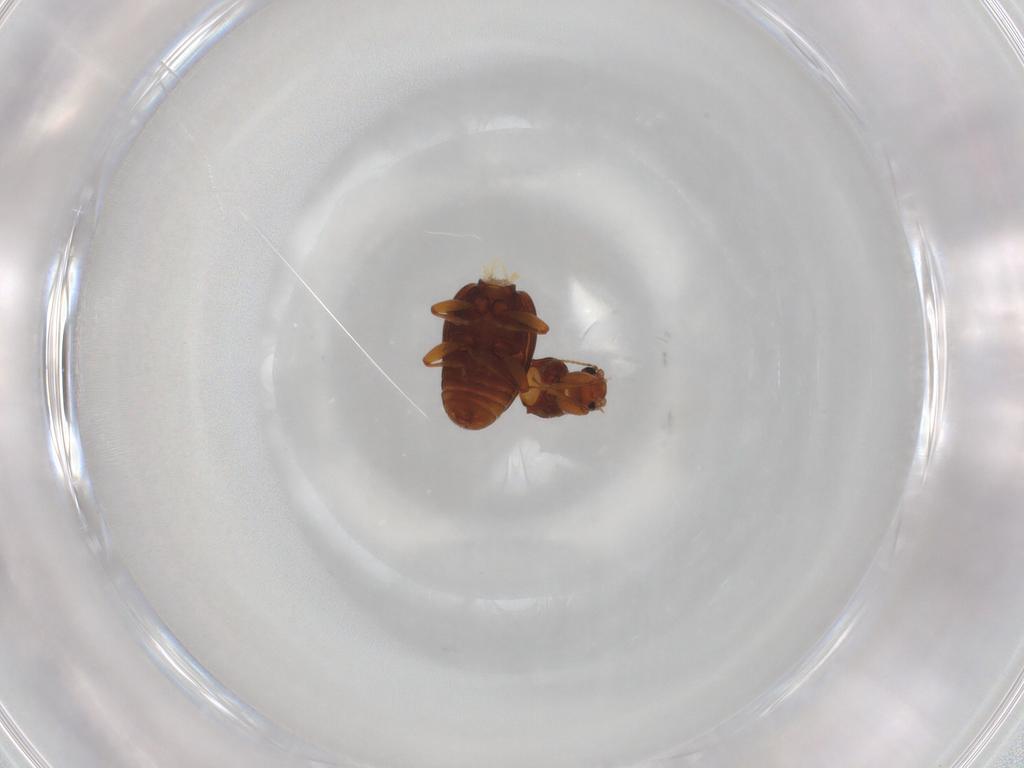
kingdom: Animalia
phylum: Arthropoda
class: Insecta
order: Coleoptera
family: Latridiidae
